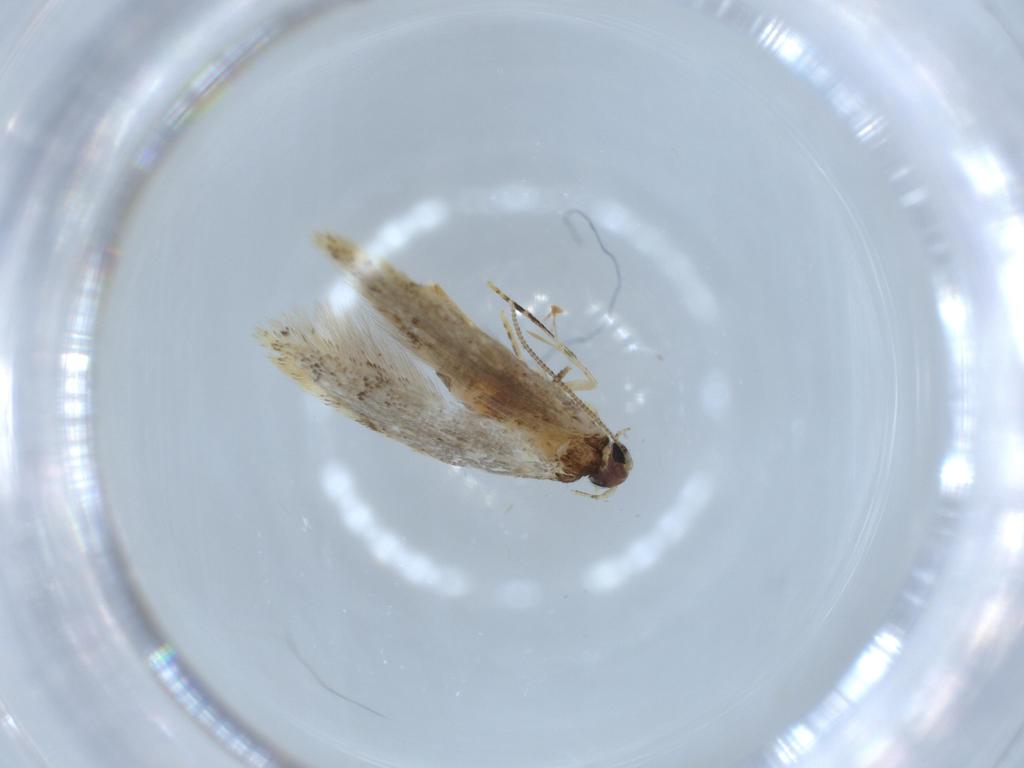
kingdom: Animalia
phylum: Arthropoda
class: Insecta
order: Lepidoptera
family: Tineidae
